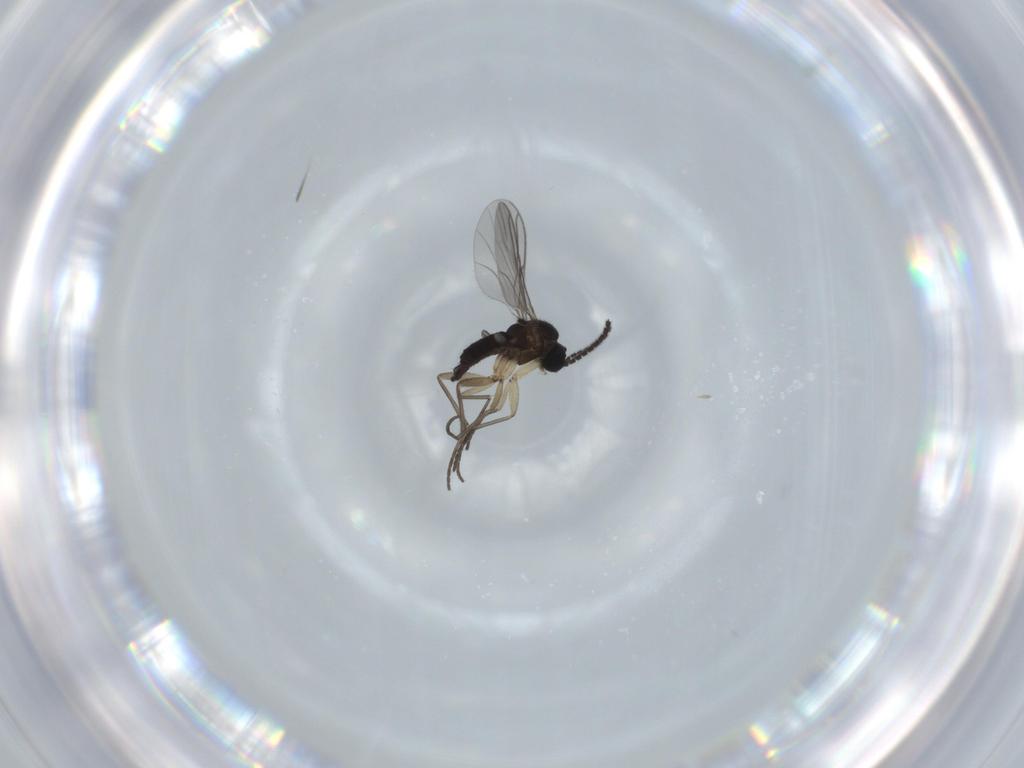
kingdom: Animalia
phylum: Arthropoda
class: Insecta
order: Diptera
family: Sciaridae
